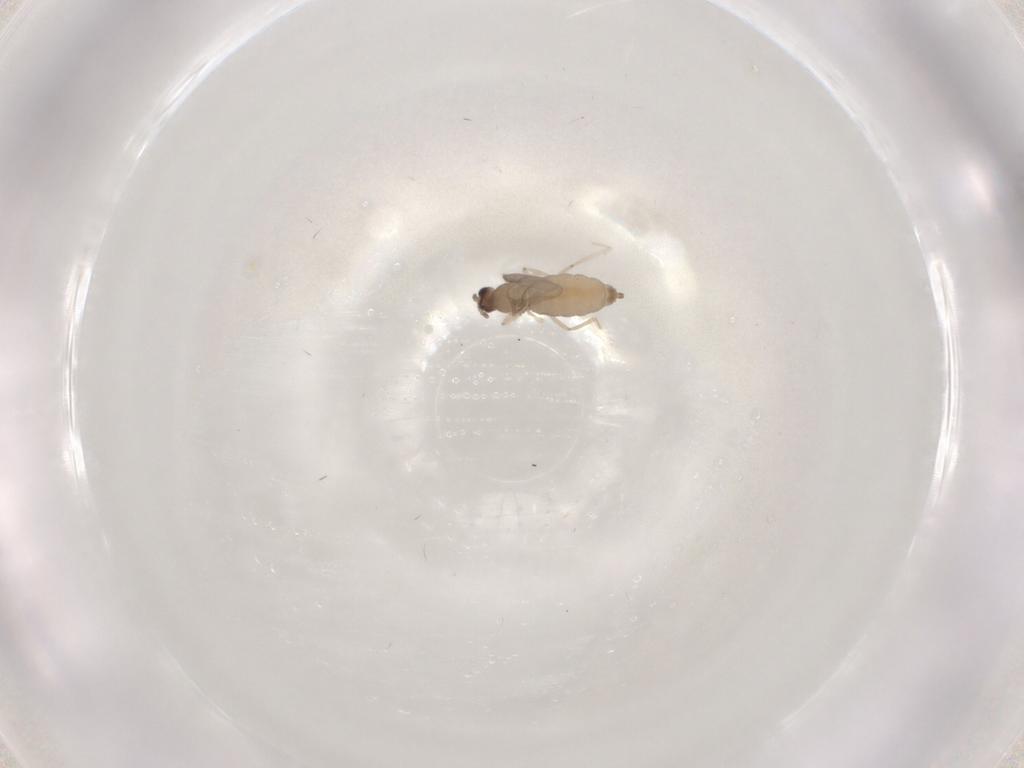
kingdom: Animalia
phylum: Arthropoda
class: Insecta
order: Diptera
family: Cecidomyiidae
